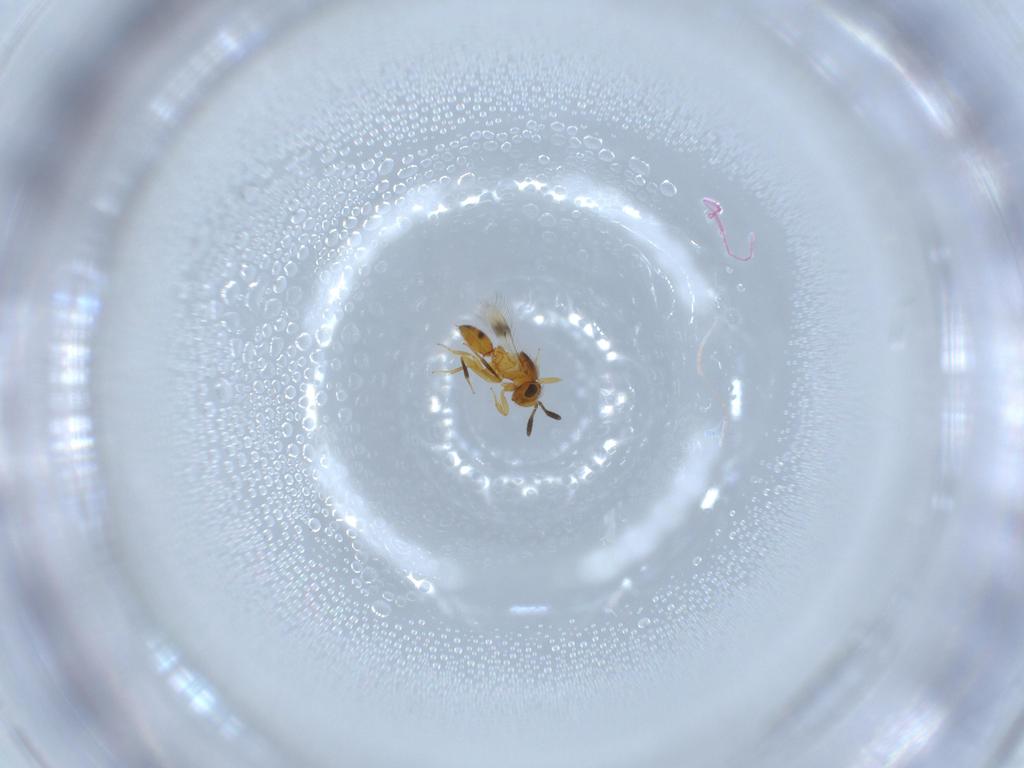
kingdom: Animalia
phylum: Arthropoda
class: Insecta
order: Hymenoptera
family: Scelionidae
